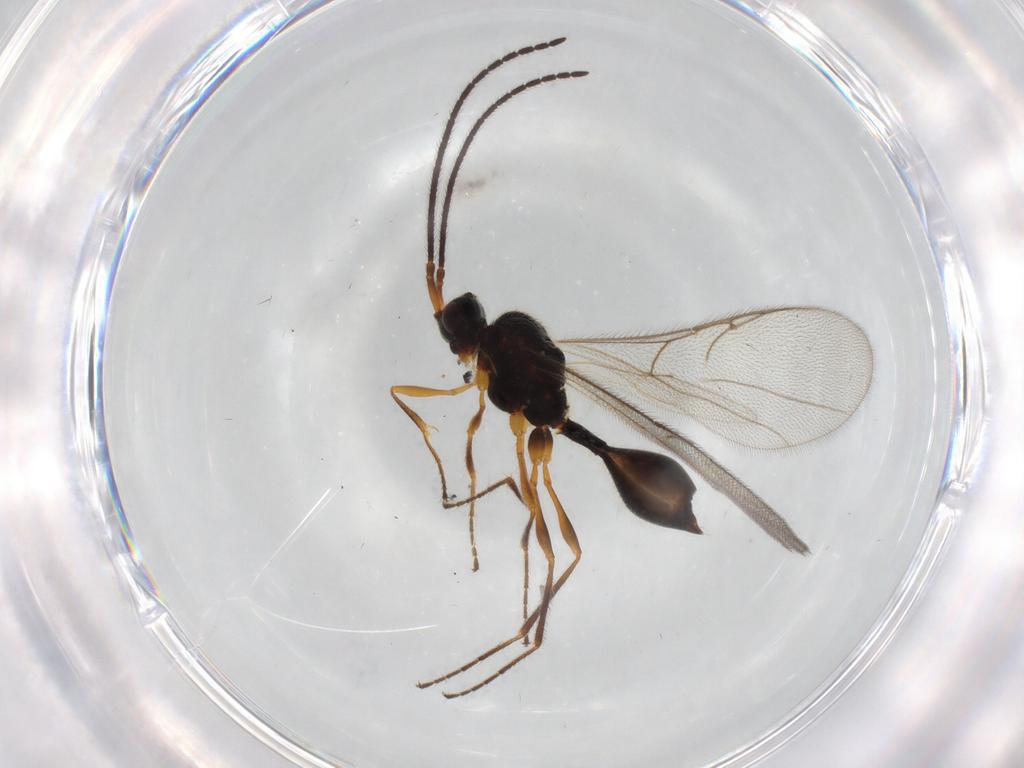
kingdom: Animalia
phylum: Arthropoda
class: Insecta
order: Hymenoptera
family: Diapriidae
